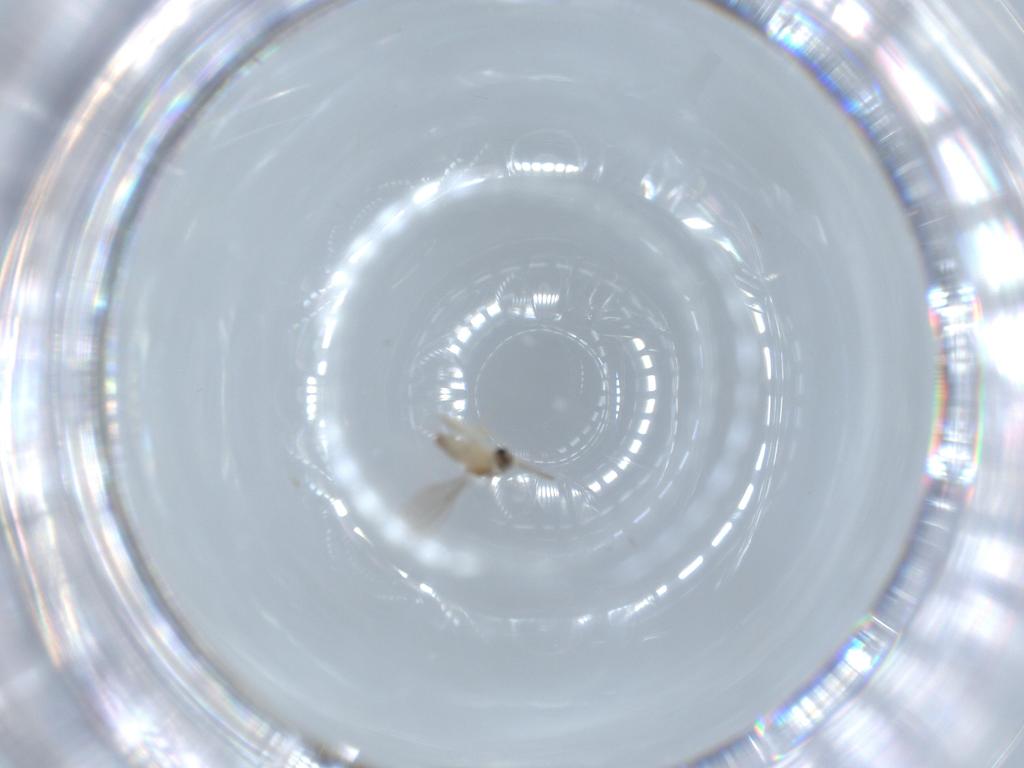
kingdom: Animalia
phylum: Arthropoda
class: Insecta
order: Diptera
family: Cecidomyiidae
